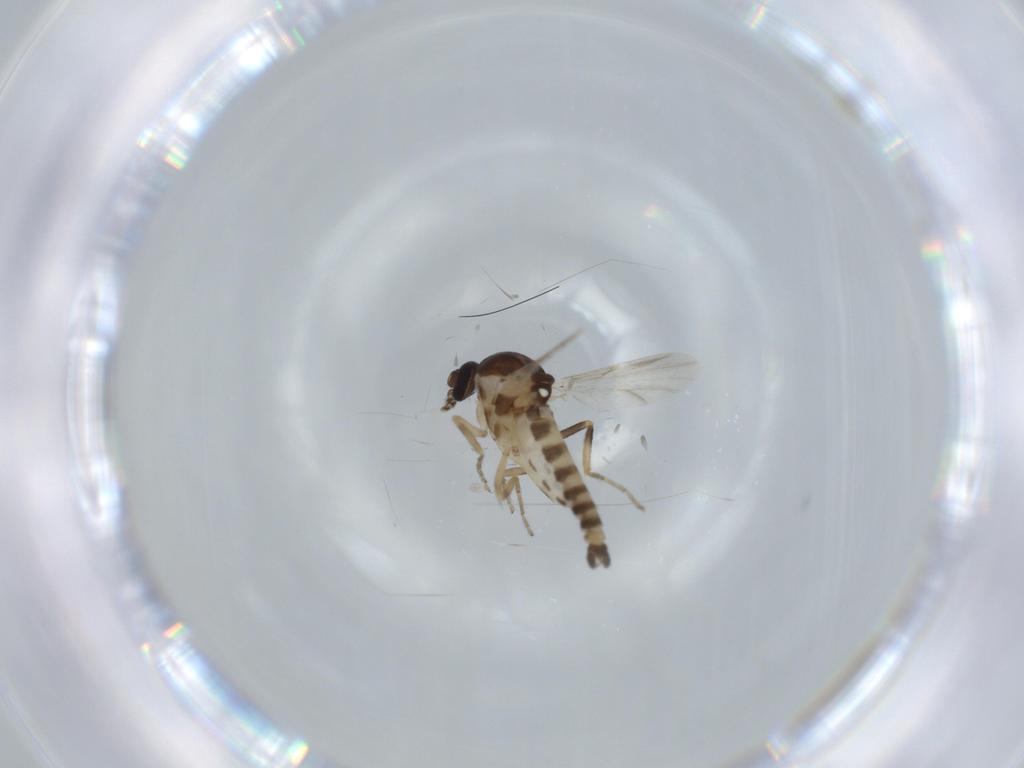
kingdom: Animalia
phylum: Arthropoda
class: Insecta
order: Diptera
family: Ceratopogonidae
